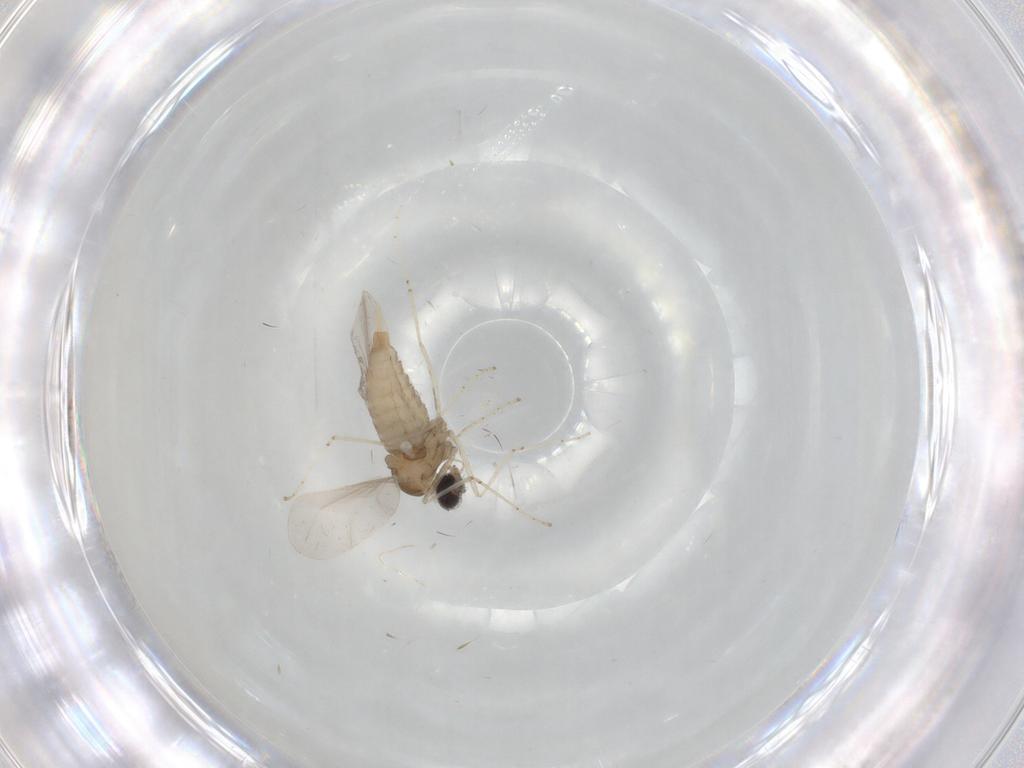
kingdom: Animalia
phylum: Arthropoda
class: Insecta
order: Diptera
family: Cecidomyiidae
